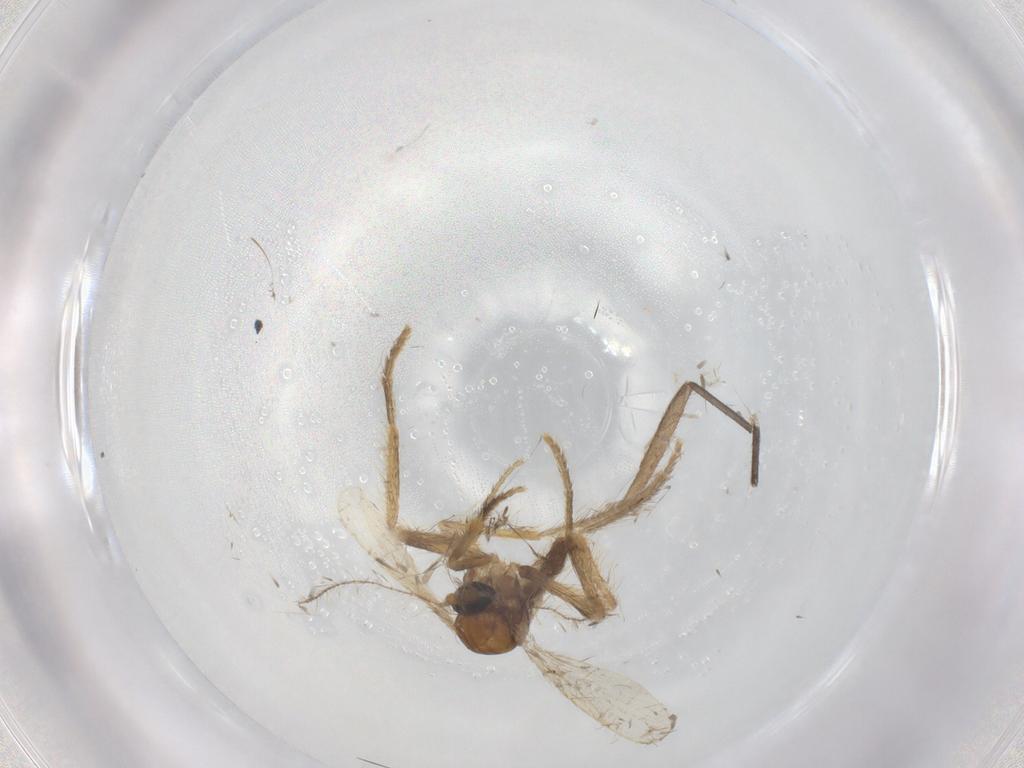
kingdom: Animalia
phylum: Arthropoda
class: Insecta
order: Diptera
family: Corethrellidae
